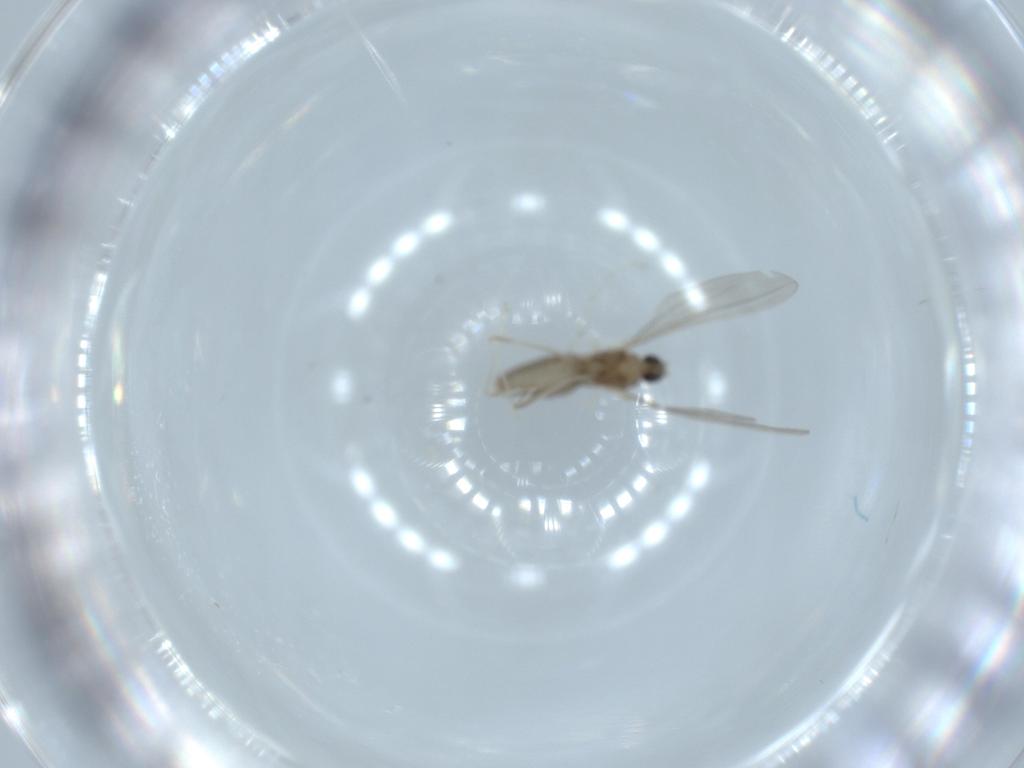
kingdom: Animalia
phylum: Arthropoda
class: Insecta
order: Diptera
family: Cecidomyiidae
